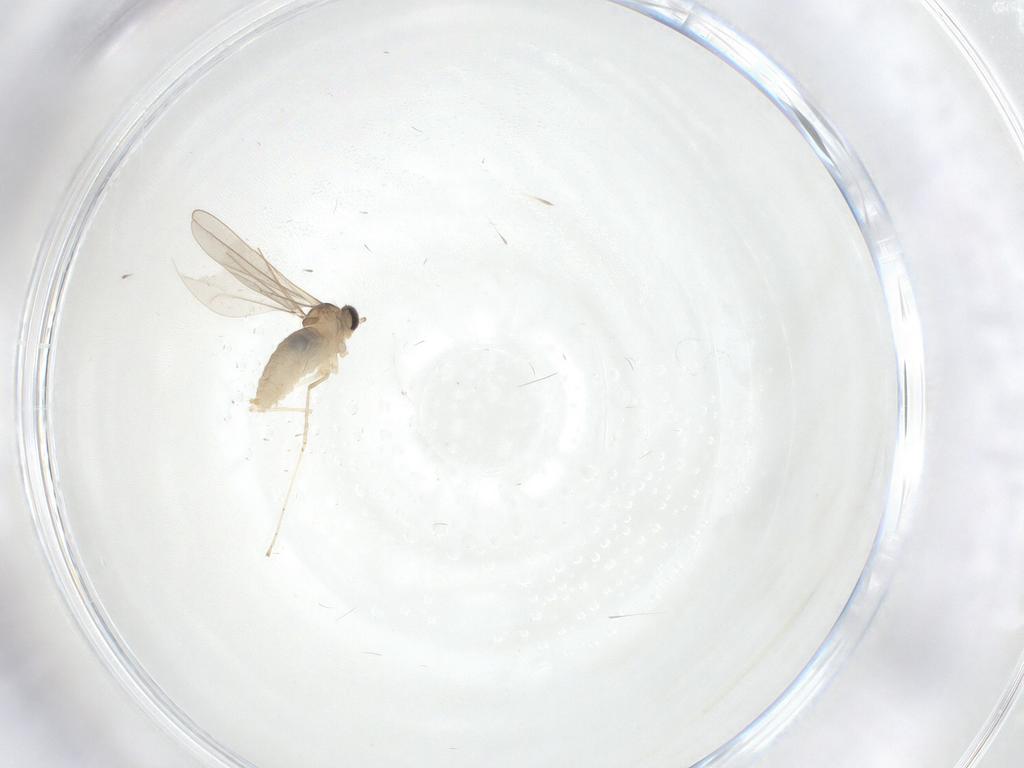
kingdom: Animalia
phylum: Arthropoda
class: Insecta
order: Diptera
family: Cecidomyiidae
